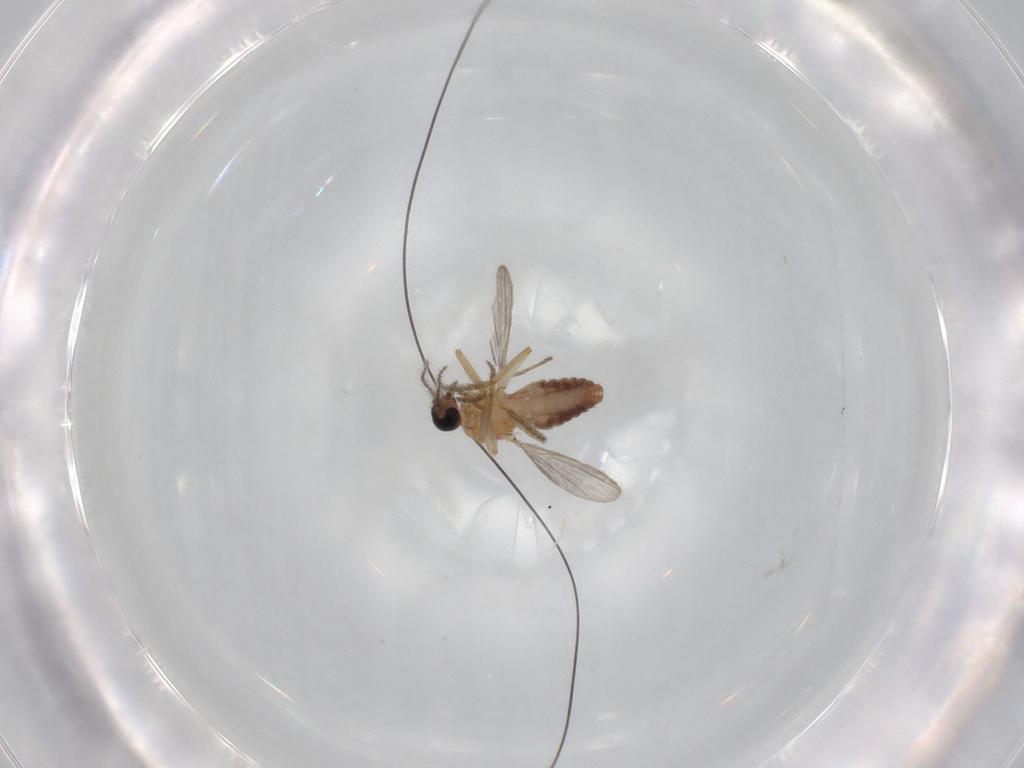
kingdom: Animalia
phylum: Arthropoda
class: Insecta
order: Diptera
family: Ceratopogonidae
